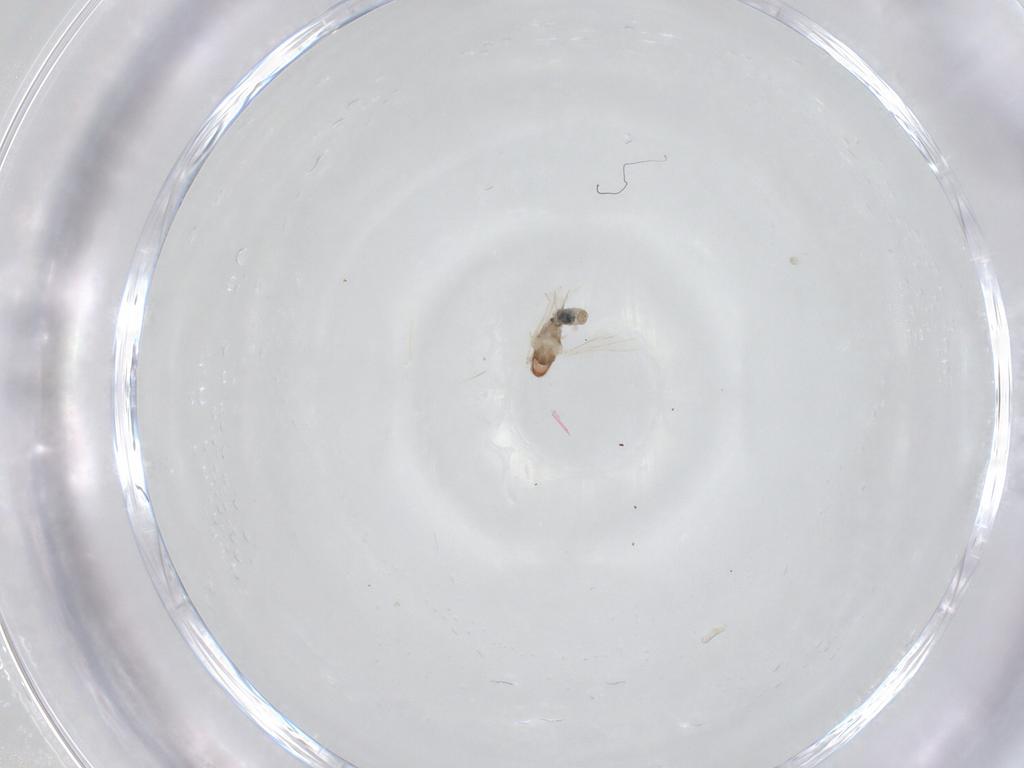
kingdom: Animalia
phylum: Arthropoda
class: Insecta
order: Diptera
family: Cecidomyiidae
